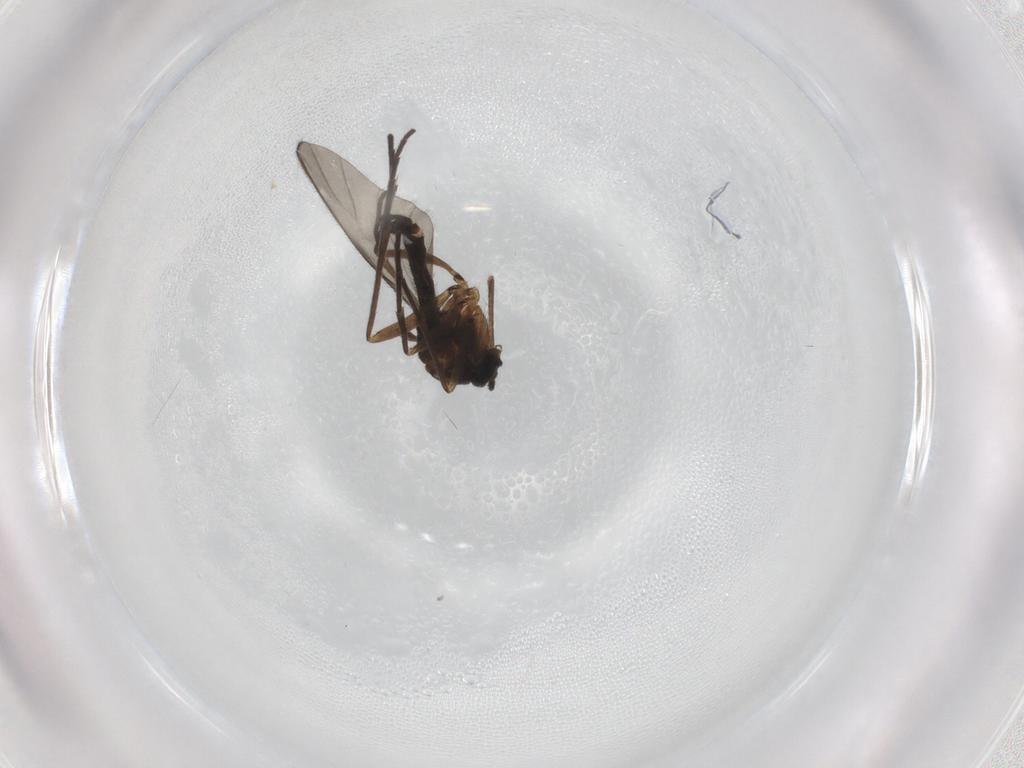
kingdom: Animalia
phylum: Arthropoda
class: Insecta
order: Diptera
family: Sciaridae
